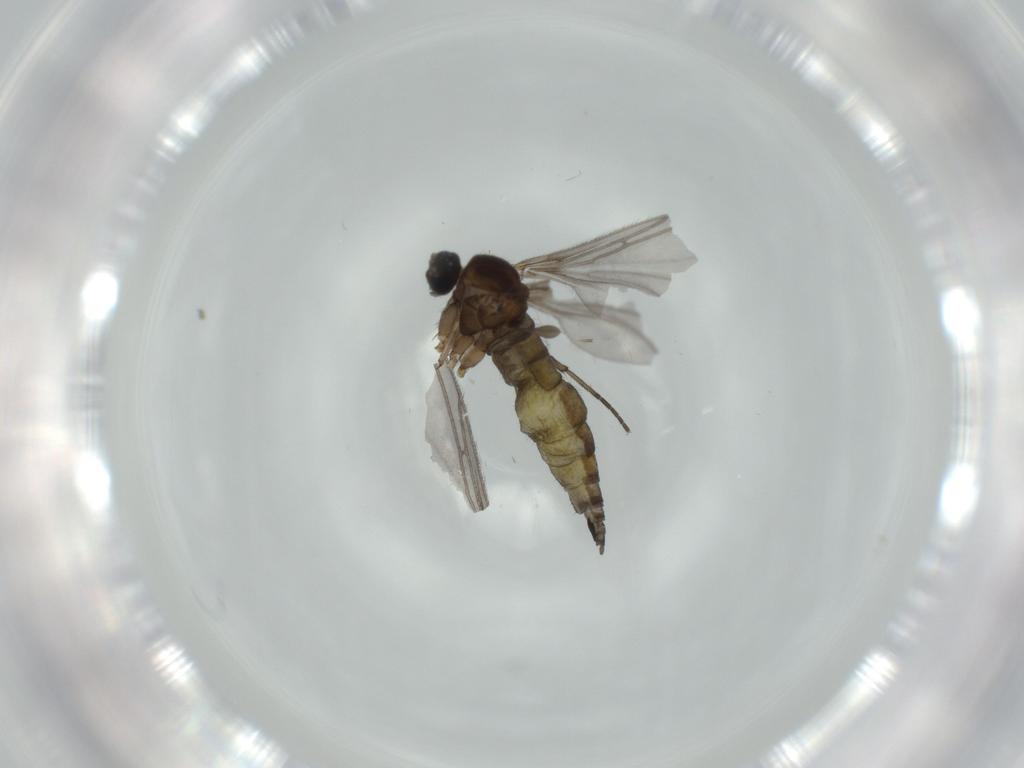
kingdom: Animalia
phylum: Arthropoda
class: Insecta
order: Diptera
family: Sciaridae
